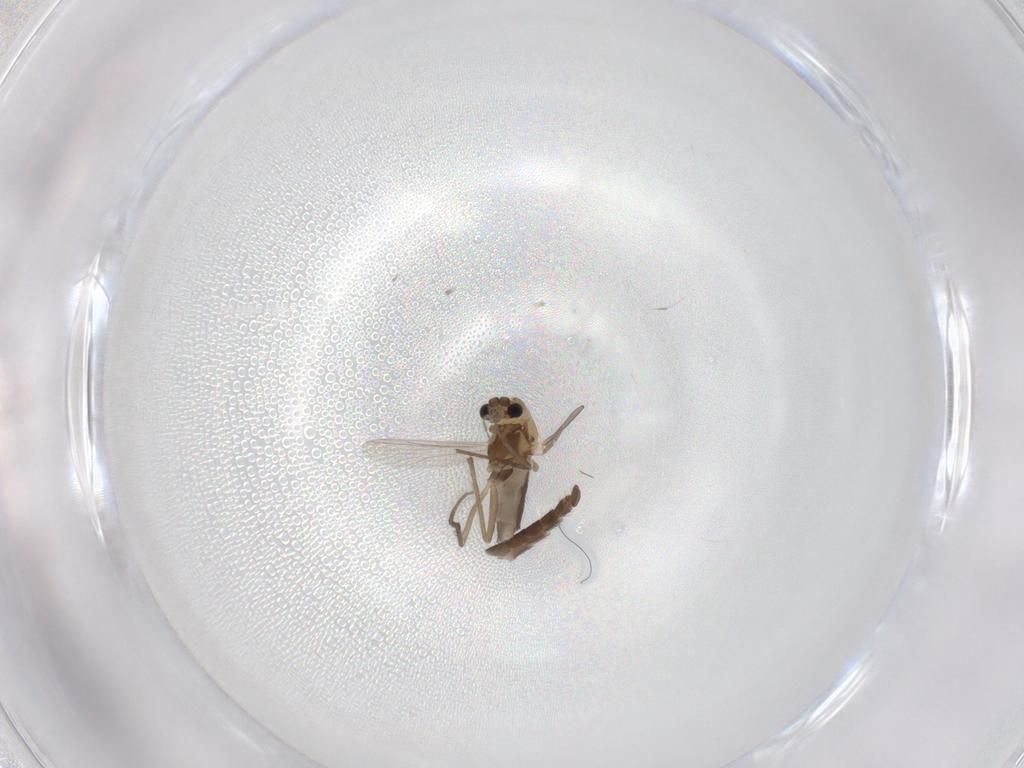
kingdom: Animalia
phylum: Arthropoda
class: Insecta
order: Diptera
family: Chironomidae
